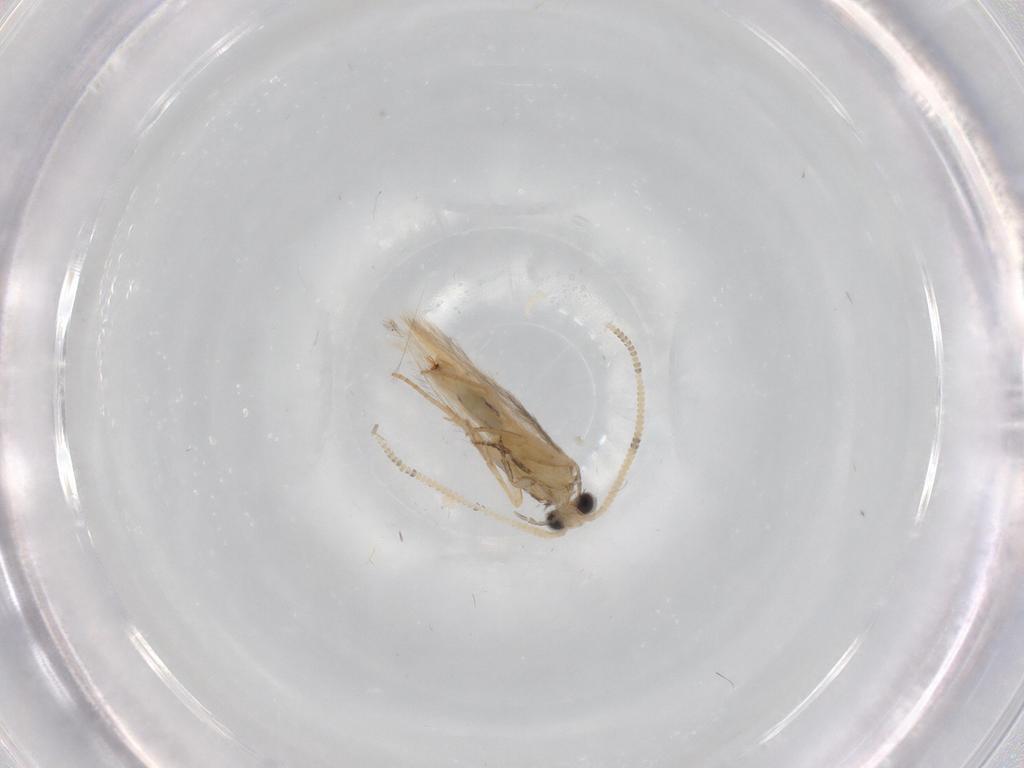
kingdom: Animalia
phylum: Arthropoda
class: Insecta
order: Trichoptera
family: Hydroptilidae
